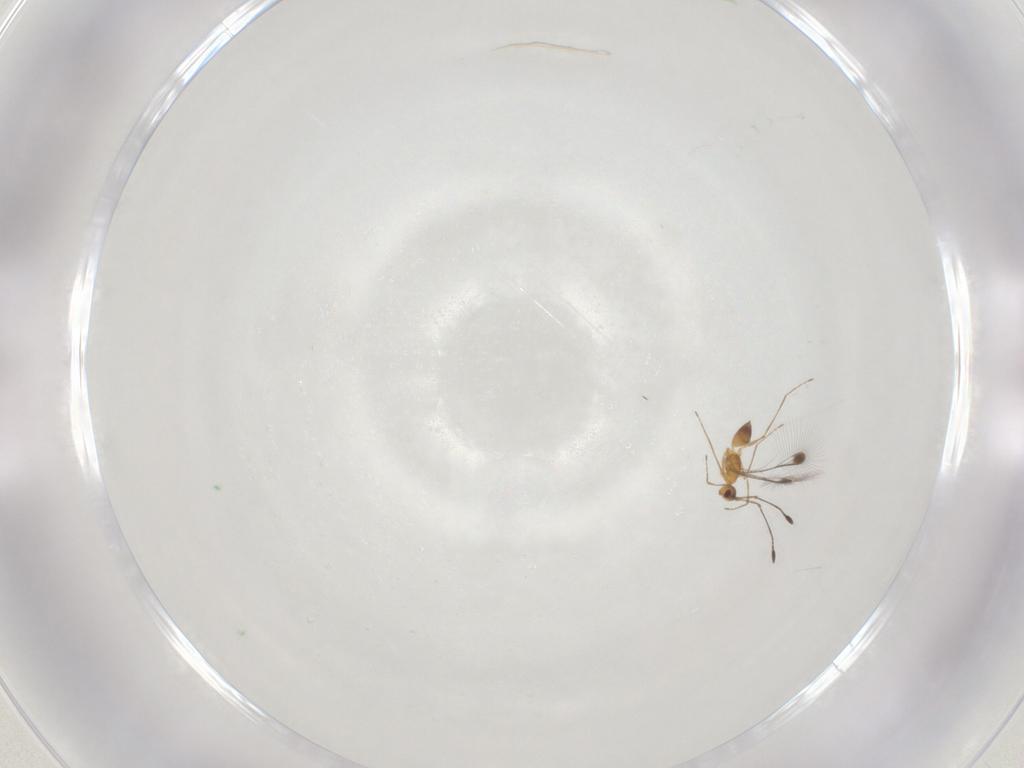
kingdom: Animalia
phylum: Arthropoda
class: Insecta
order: Hymenoptera
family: Mymaridae
